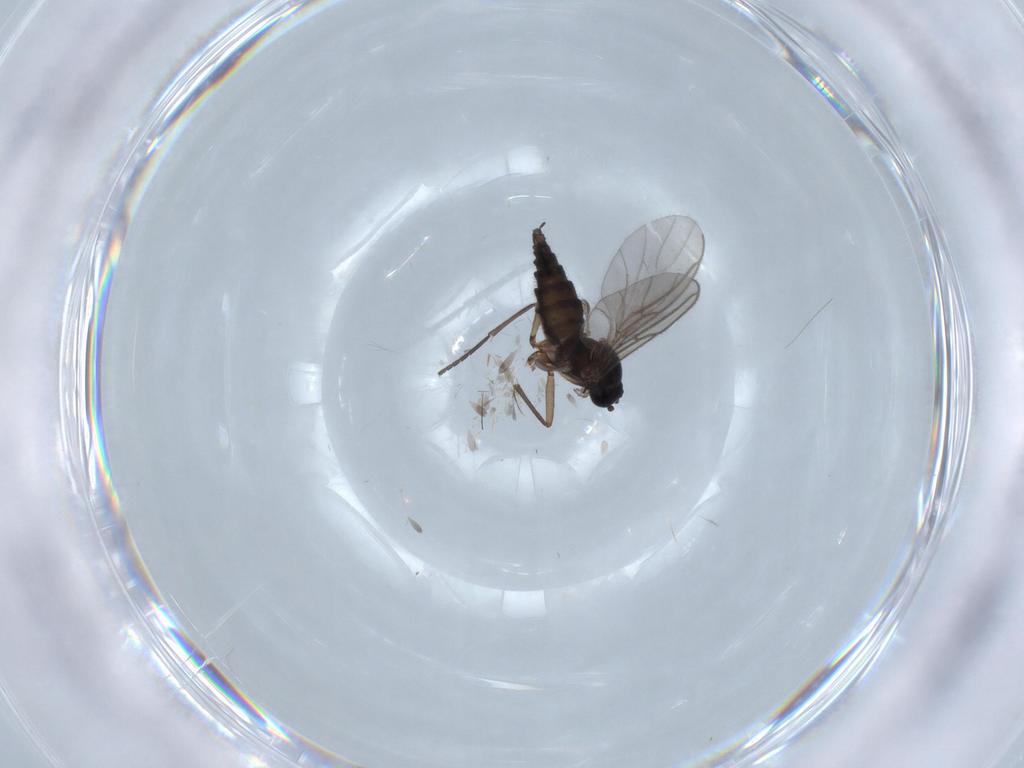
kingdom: Animalia
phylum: Arthropoda
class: Insecta
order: Diptera
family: Sciaridae
